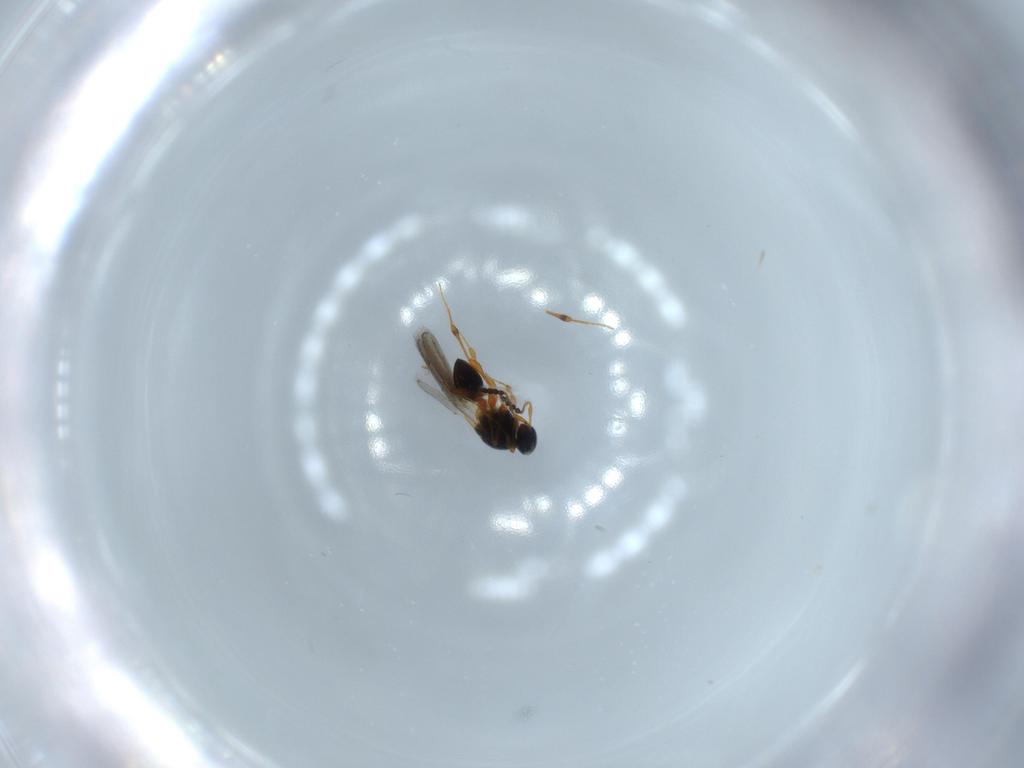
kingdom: Animalia
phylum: Arthropoda
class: Insecta
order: Hymenoptera
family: Platygastridae
